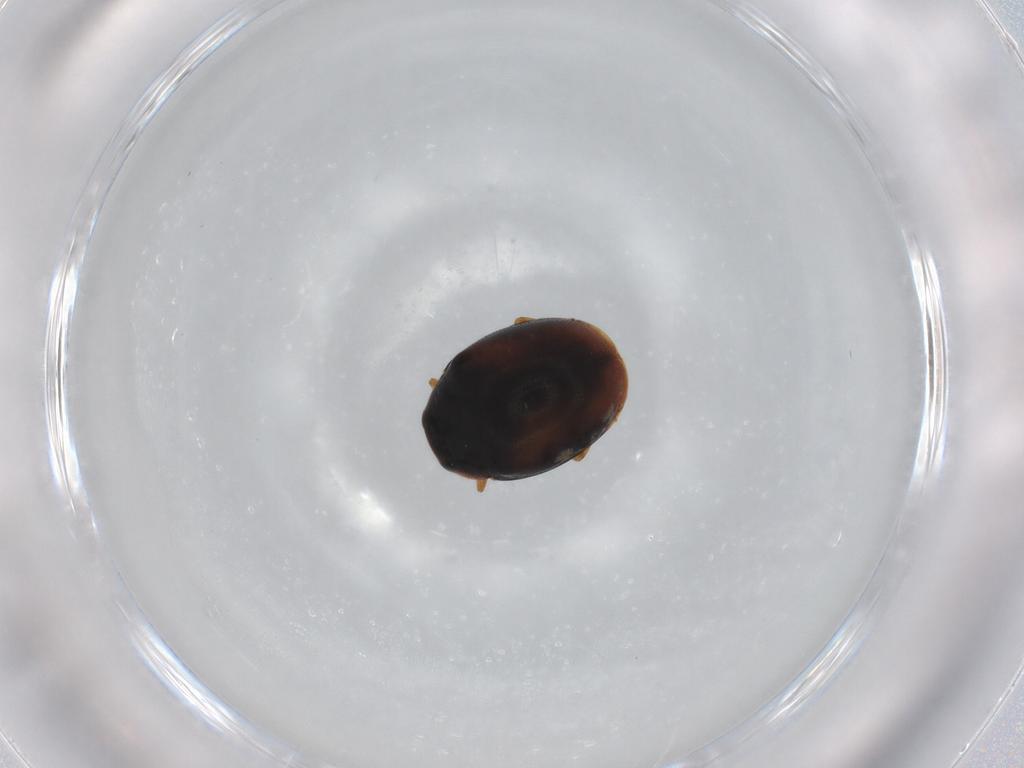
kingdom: Animalia
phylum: Arthropoda
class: Insecta
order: Coleoptera
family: Coccinellidae
